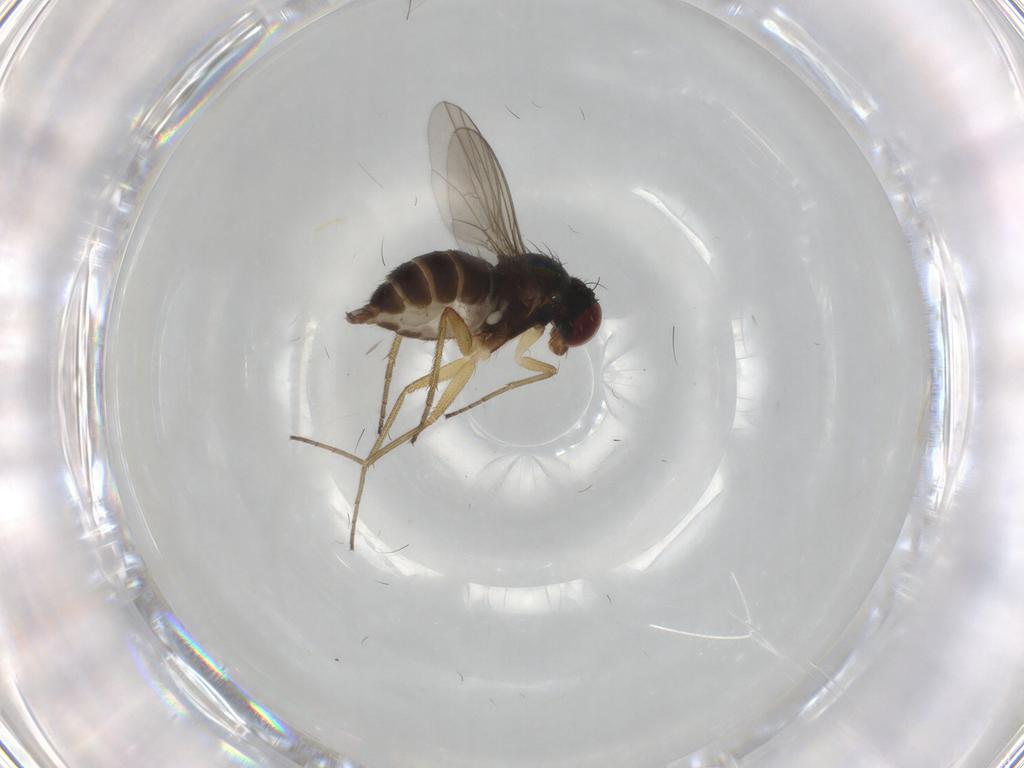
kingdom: Animalia
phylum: Arthropoda
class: Insecta
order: Diptera
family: Dolichopodidae
